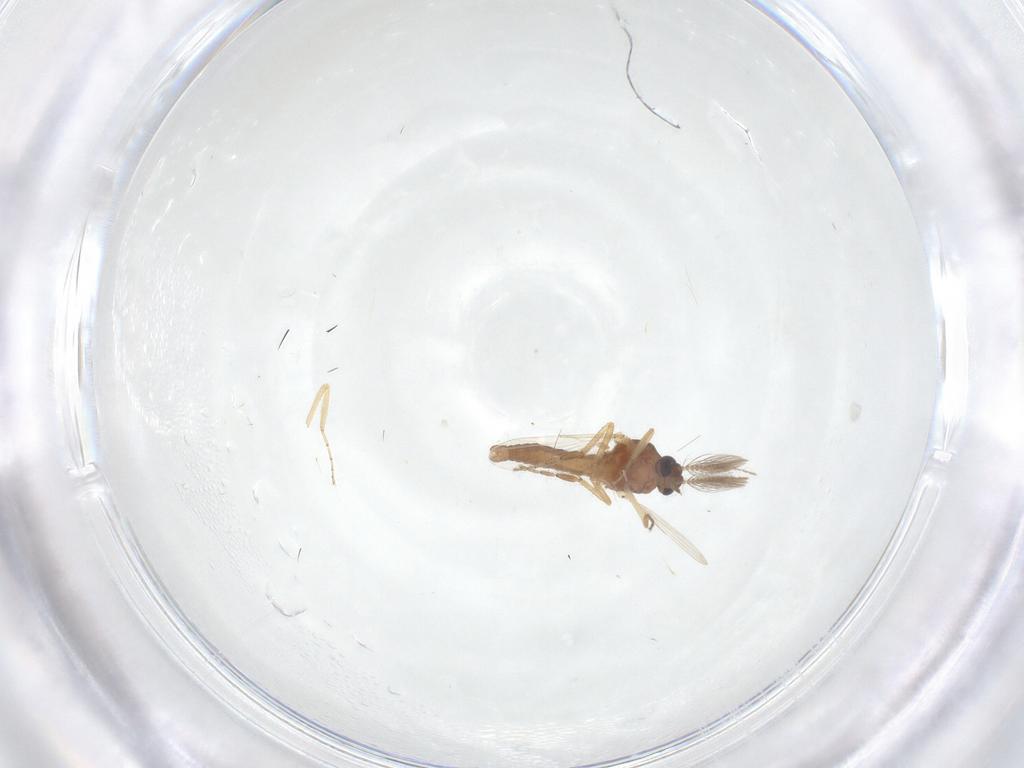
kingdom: Animalia
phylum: Arthropoda
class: Insecta
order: Diptera
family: Ceratopogonidae
